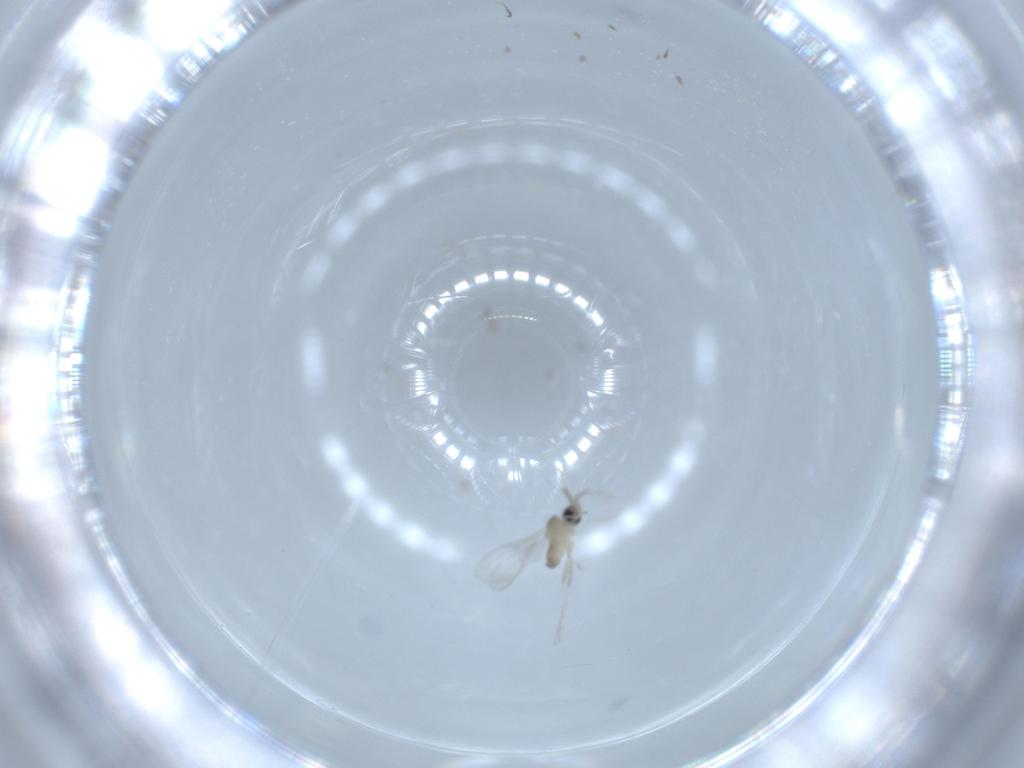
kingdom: Animalia
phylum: Arthropoda
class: Insecta
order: Diptera
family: Cecidomyiidae
